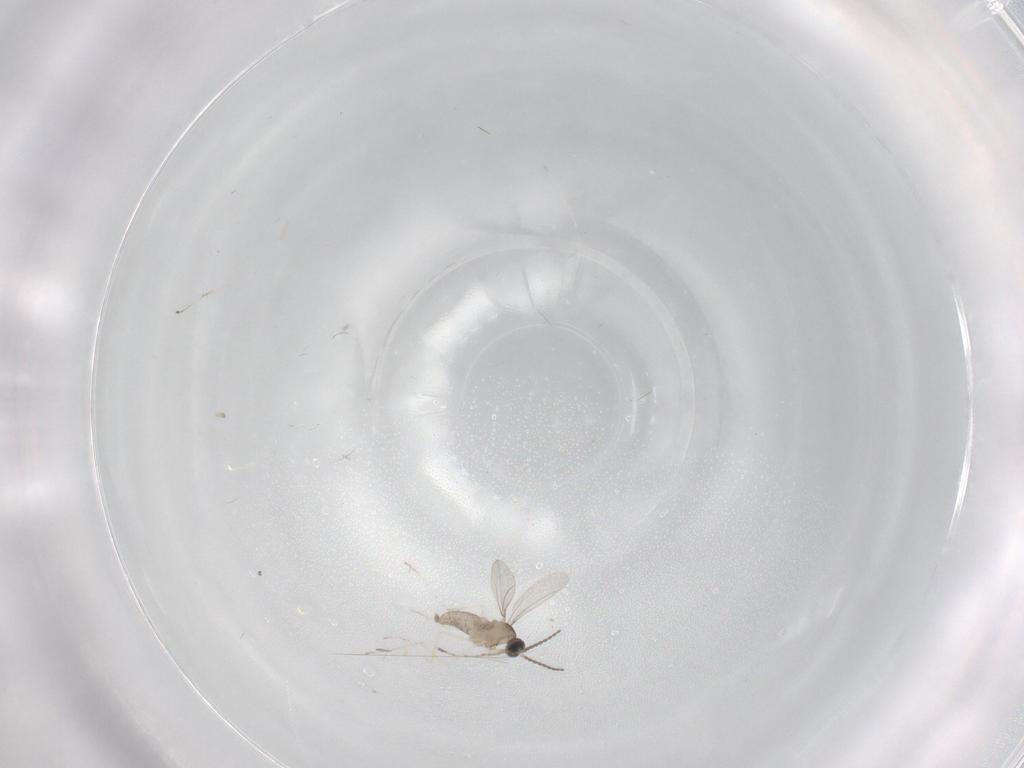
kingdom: Animalia
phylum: Arthropoda
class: Insecta
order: Diptera
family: Cecidomyiidae
